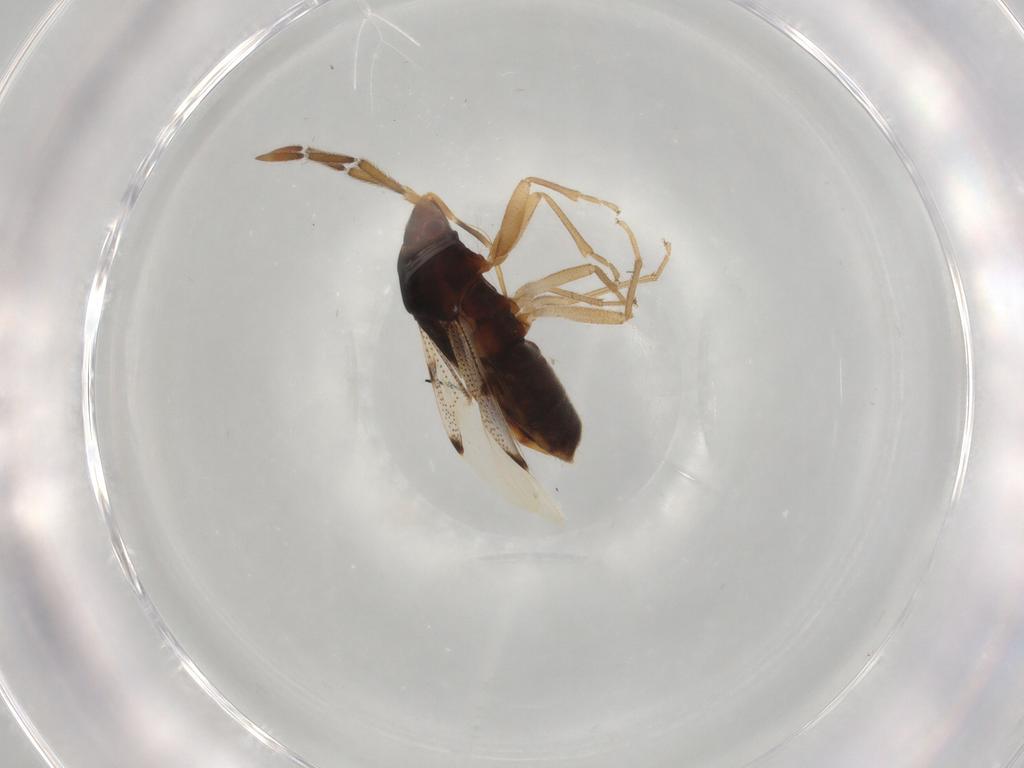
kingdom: Animalia
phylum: Arthropoda
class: Insecta
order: Hemiptera
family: Rhyparochromidae
